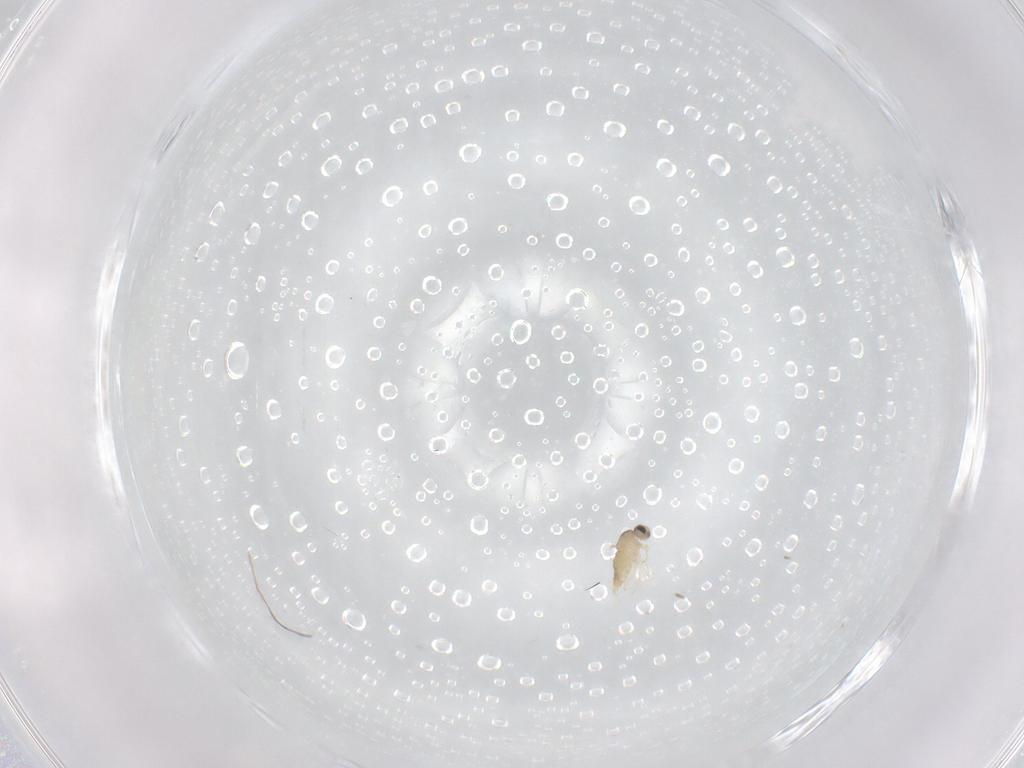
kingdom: Animalia
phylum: Arthropoda
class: Insecta
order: Diptera
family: Cecidomyiidae
